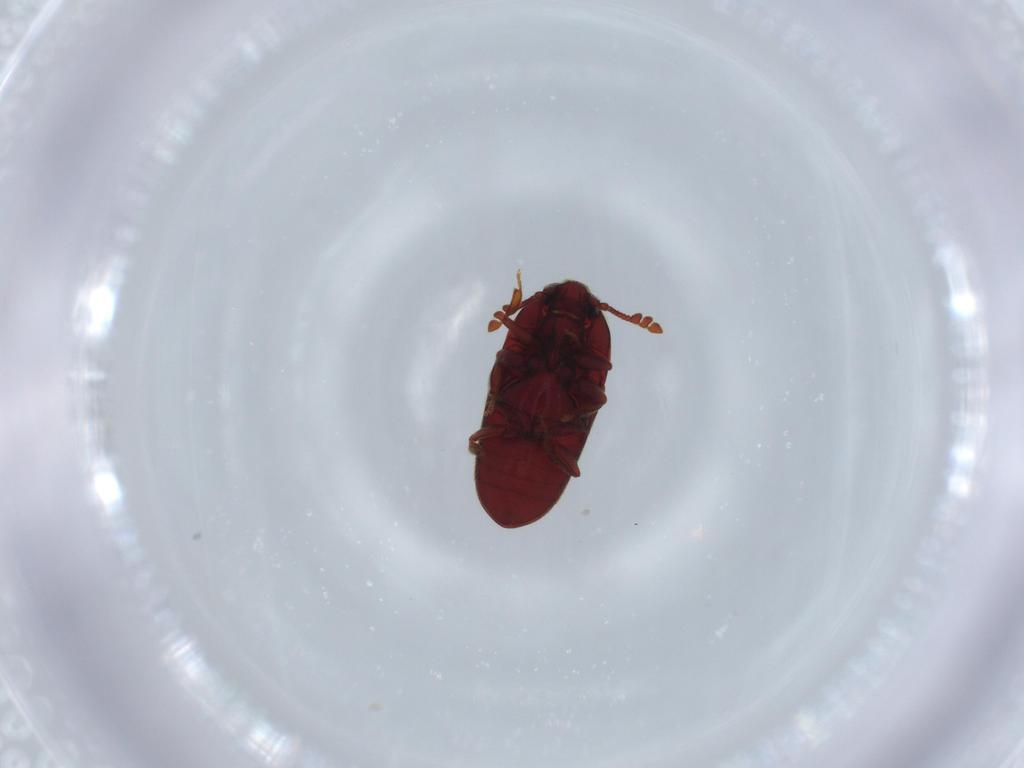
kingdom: Animalia
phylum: Arthropoda
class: Insecta
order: Coleoptera
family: Throscidae
